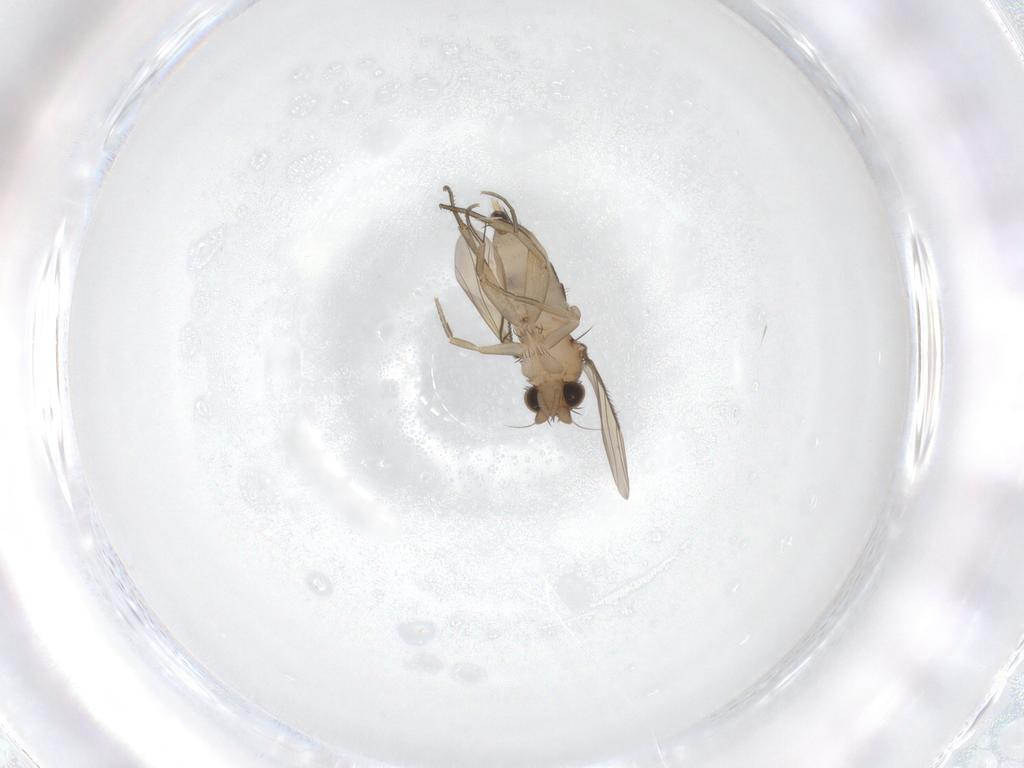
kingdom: Animalia
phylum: Arthropoda
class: Insecta
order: Diptera
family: Phoridae
